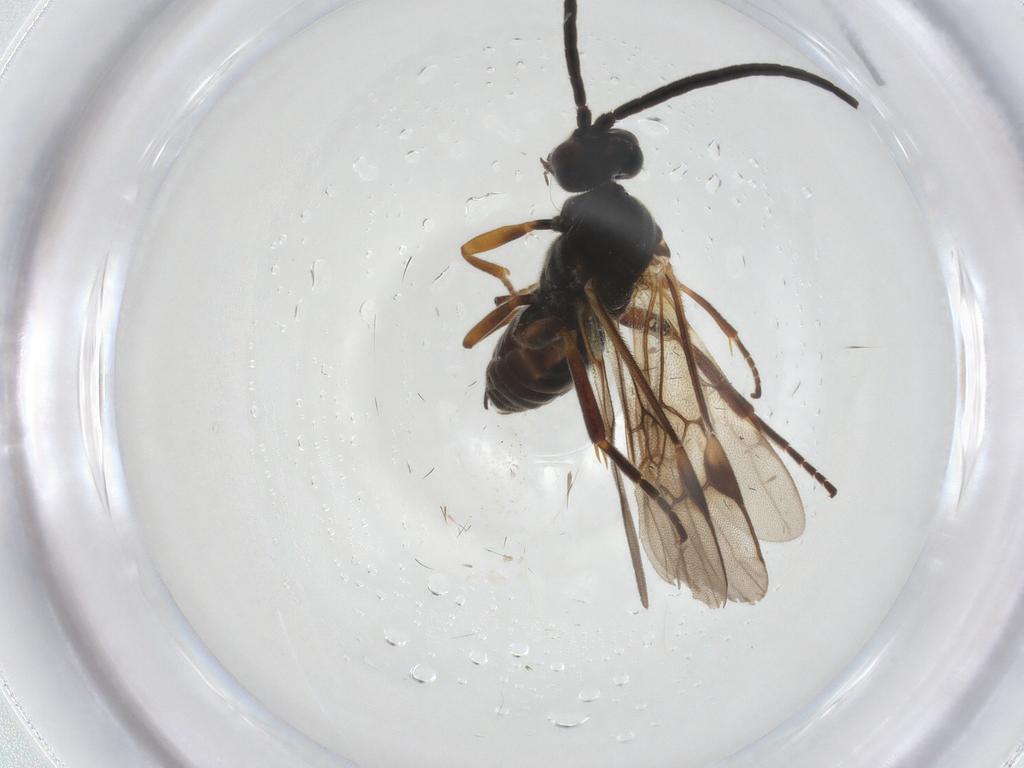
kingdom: Animalia
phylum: Arthropoda
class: Insecta
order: Hymenoptera
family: Braconidae
